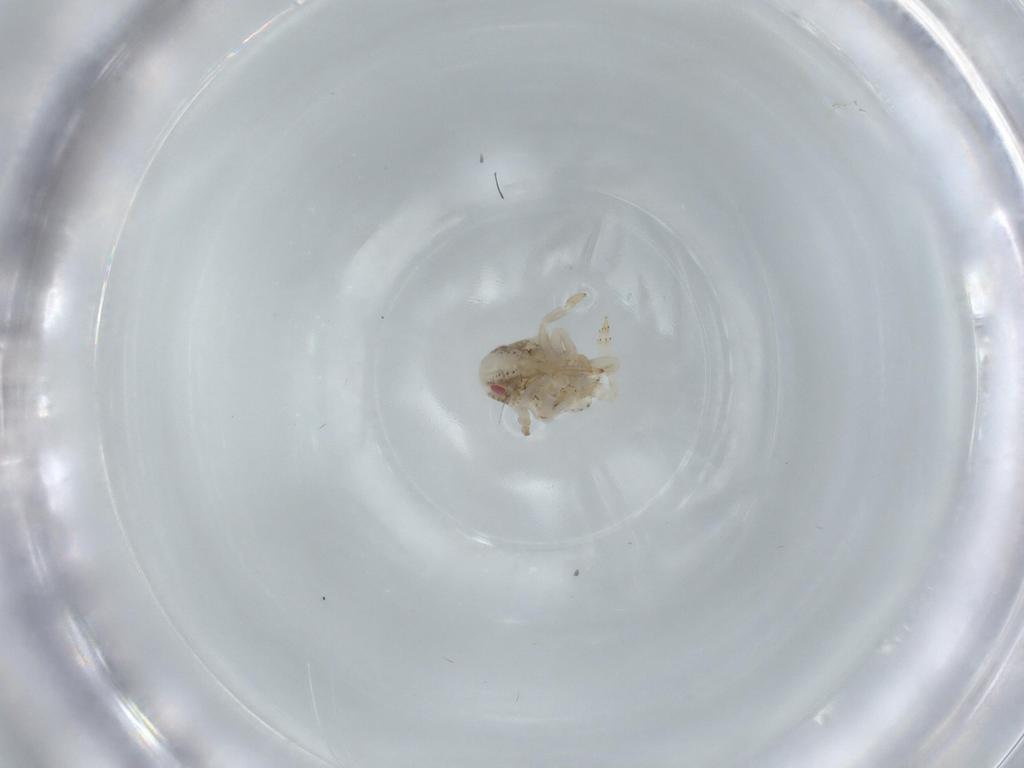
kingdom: Animalia
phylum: Arthropoda
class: Insecta
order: Hemiptera
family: Acanaloniidae
